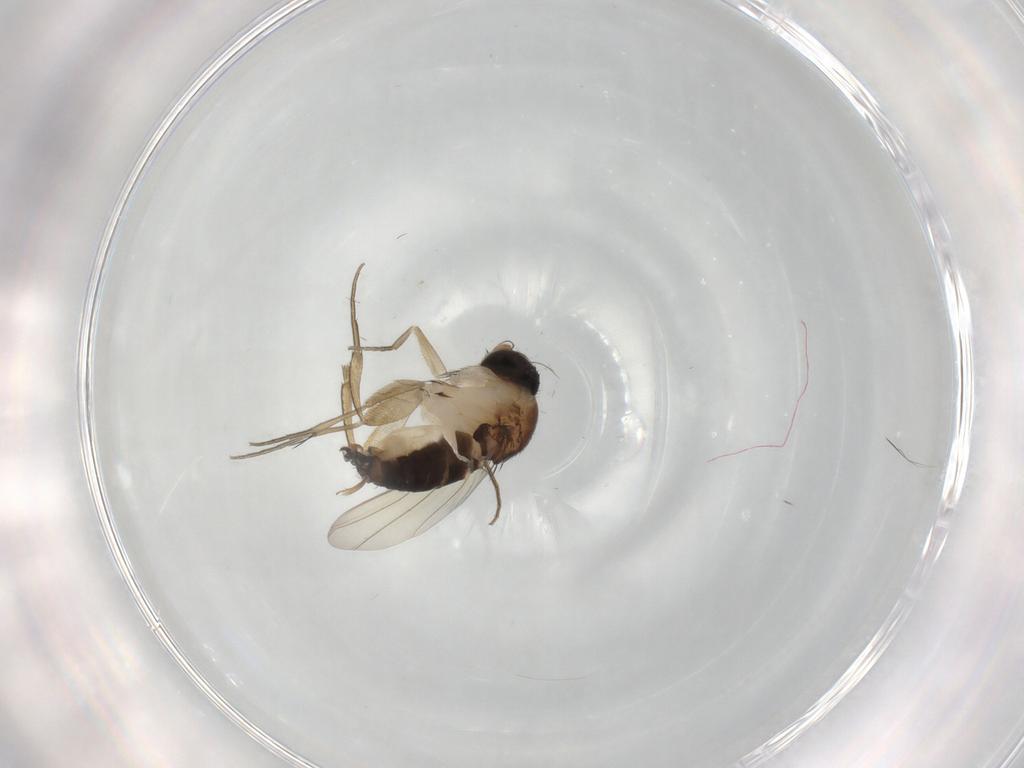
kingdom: Animalia
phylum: Arthropoda
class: Insecta
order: Diptera
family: Phoridae
